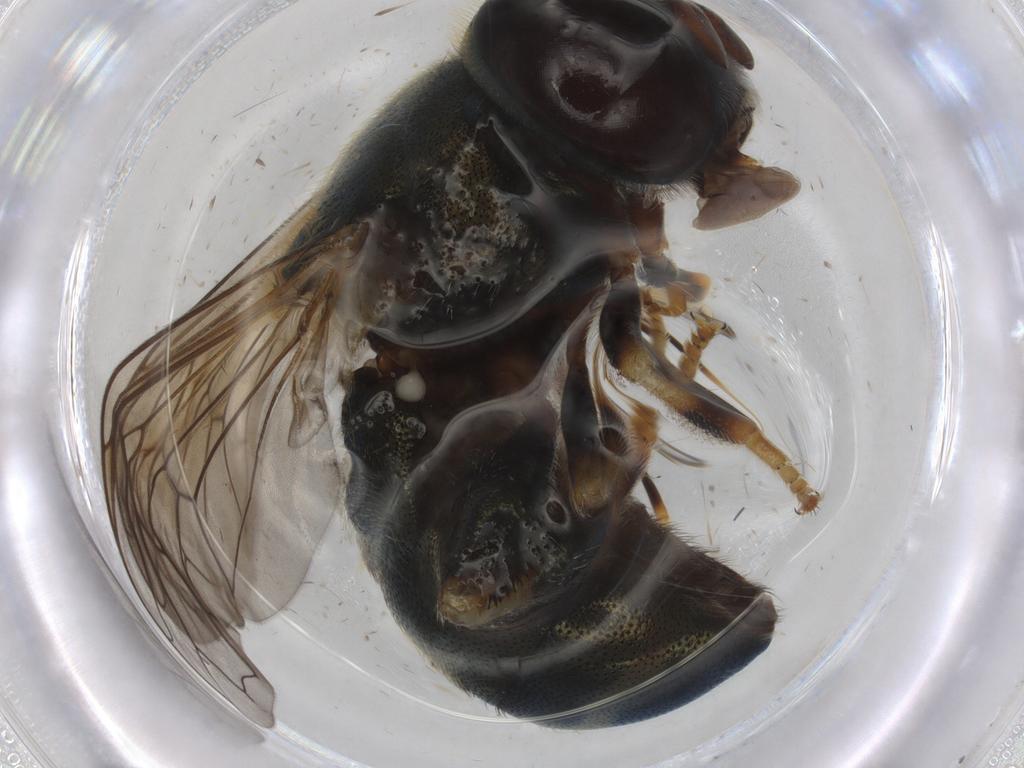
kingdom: Animalia
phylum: Arthropoda
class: Insecta
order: Diptera
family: Syrphidae
